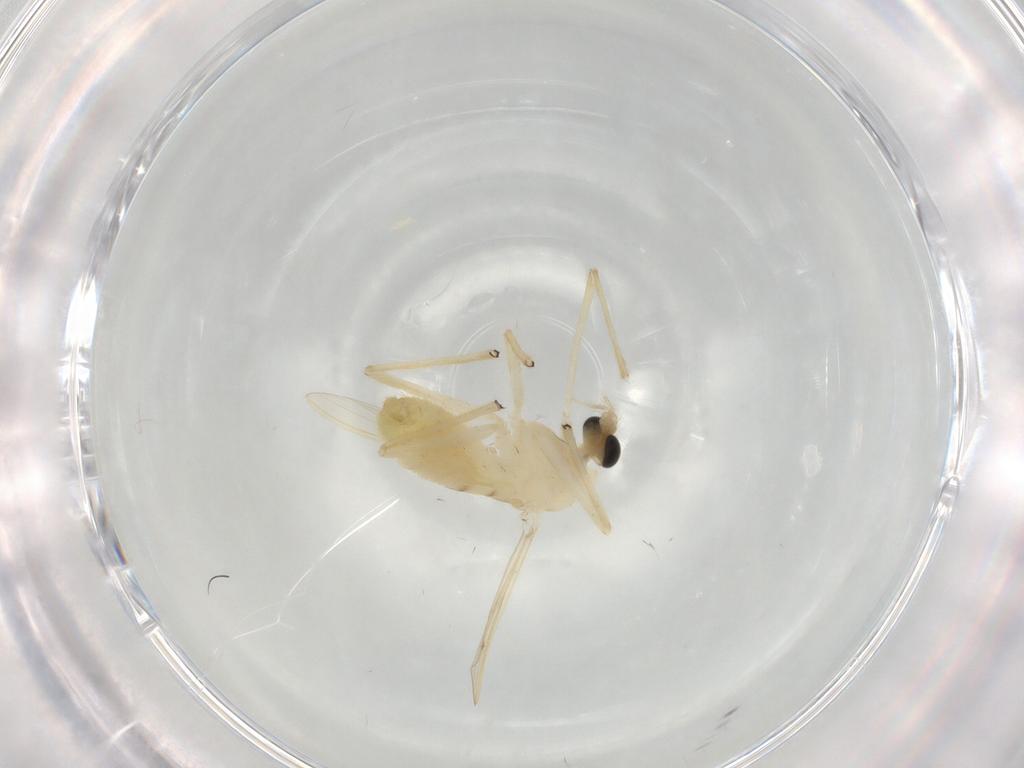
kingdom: Animalia
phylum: Arthropoda
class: Insecta
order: Diptera
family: Chironomidae
